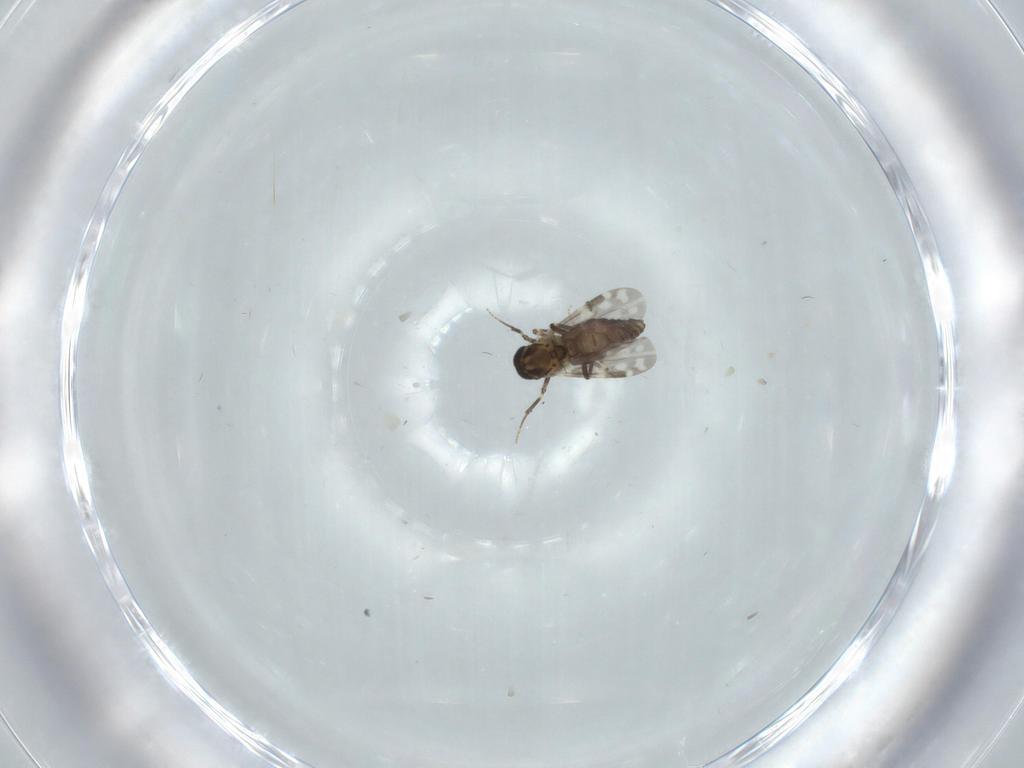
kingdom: Animalia
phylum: Arthropoda
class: Insecta
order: Diptera
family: Ceratopogonidae
